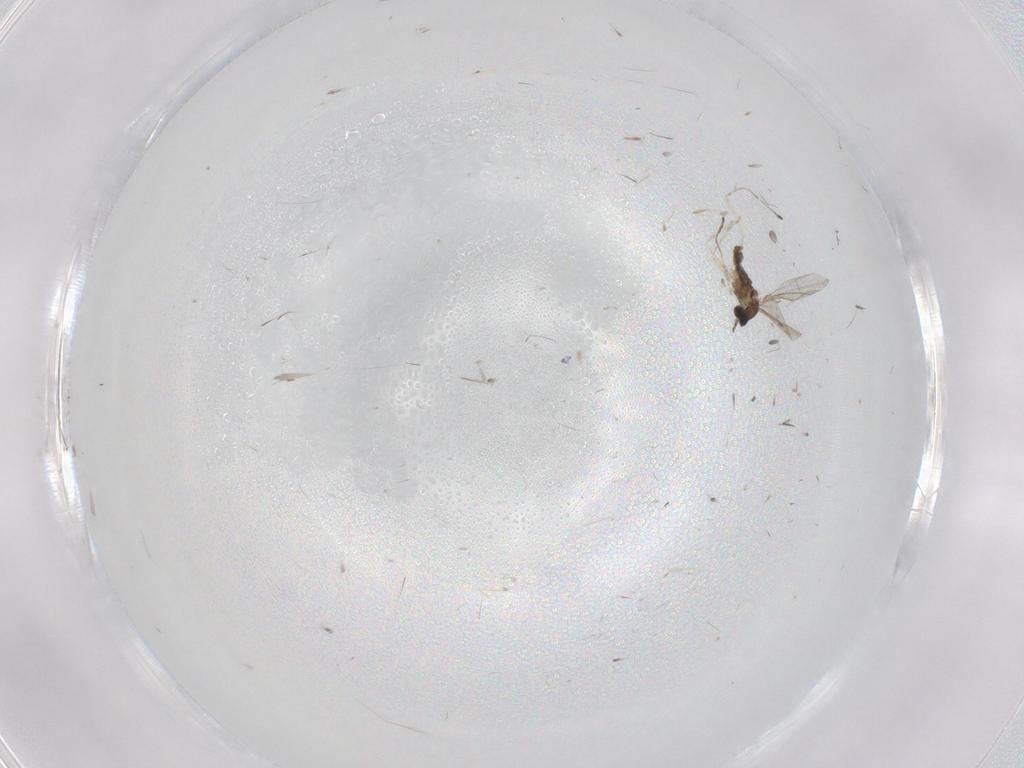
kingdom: Animalia
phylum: Arthropoda
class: Insecta
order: Diptera
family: Cecidomyiidae
